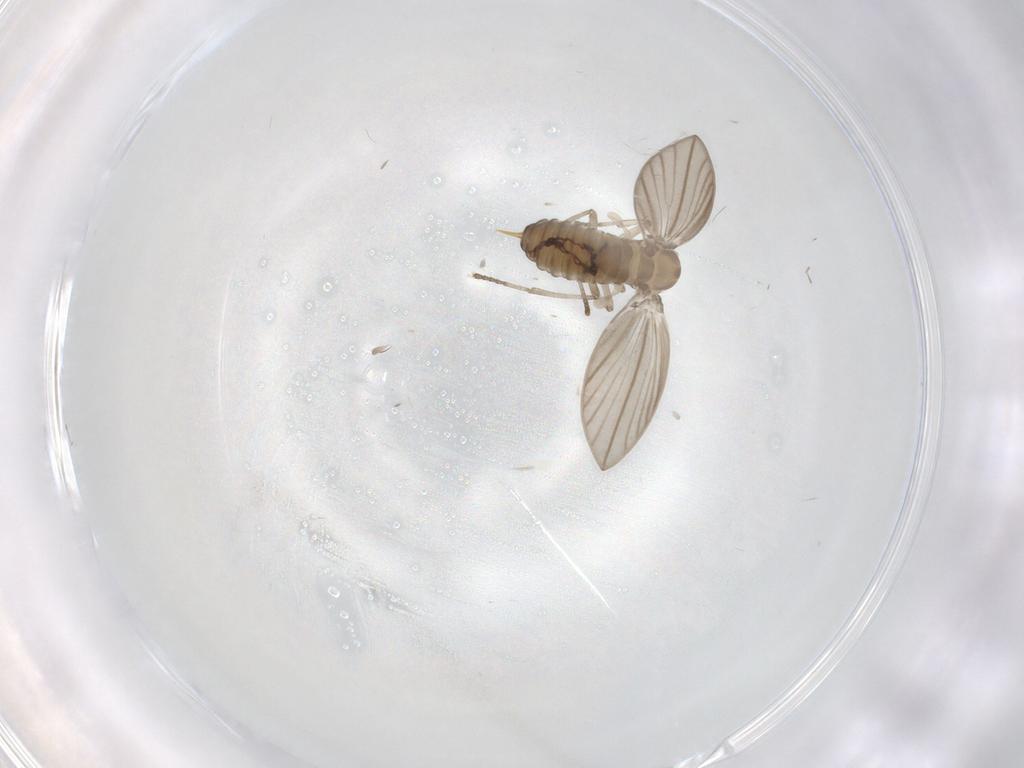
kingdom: Animalia
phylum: Arthropoda
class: Insecta
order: Diptera
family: Psychodidae
